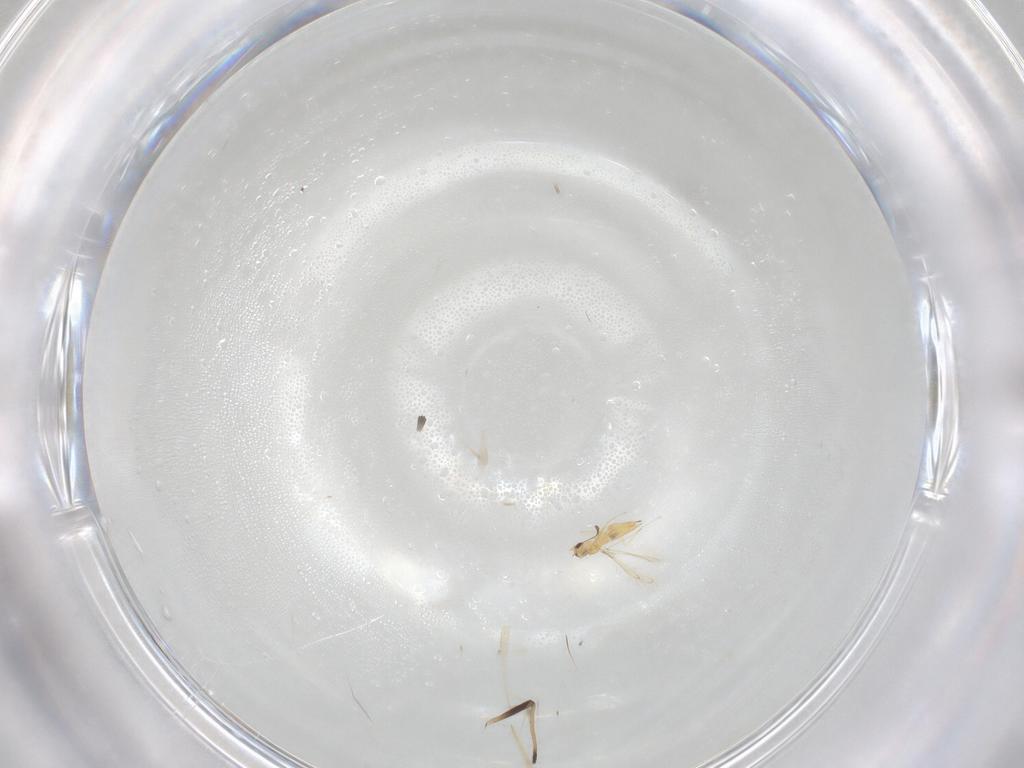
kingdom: Animalia
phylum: Arthropoda
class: Insecta
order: Hymenoptera
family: Mymaridae
